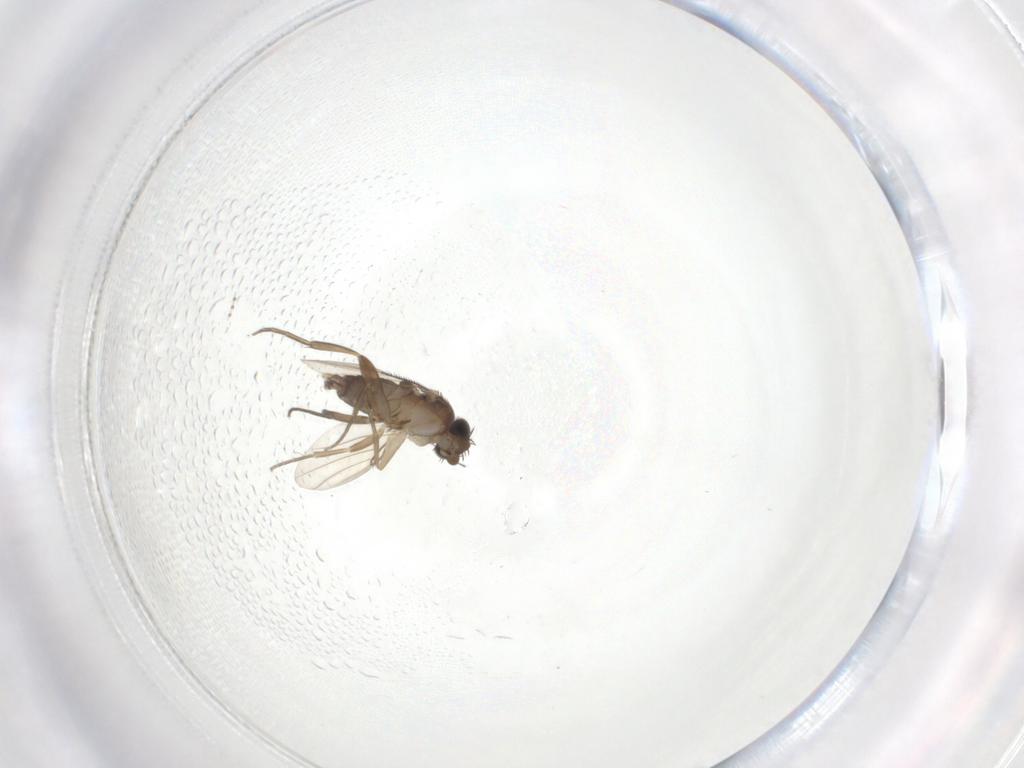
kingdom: Animalia
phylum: Arthropoda
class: Insecta
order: Diptera
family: Phoridae
